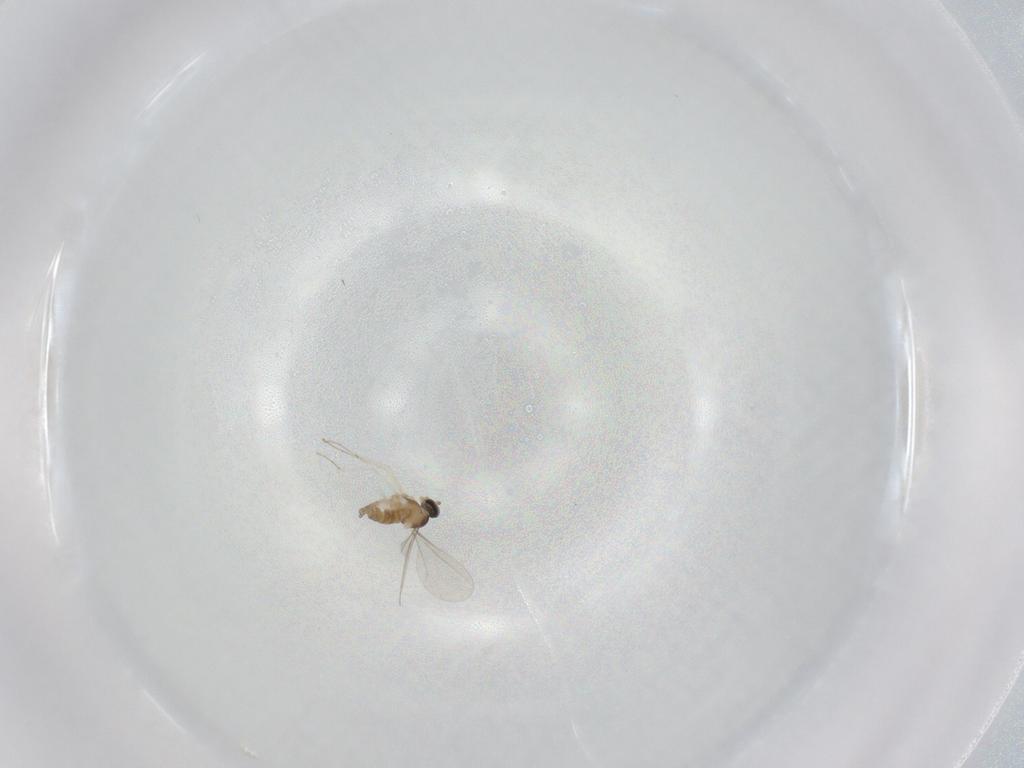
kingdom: Animalia
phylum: Arthropoda
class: Insecta
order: Diptera
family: Cecidomyiidae
